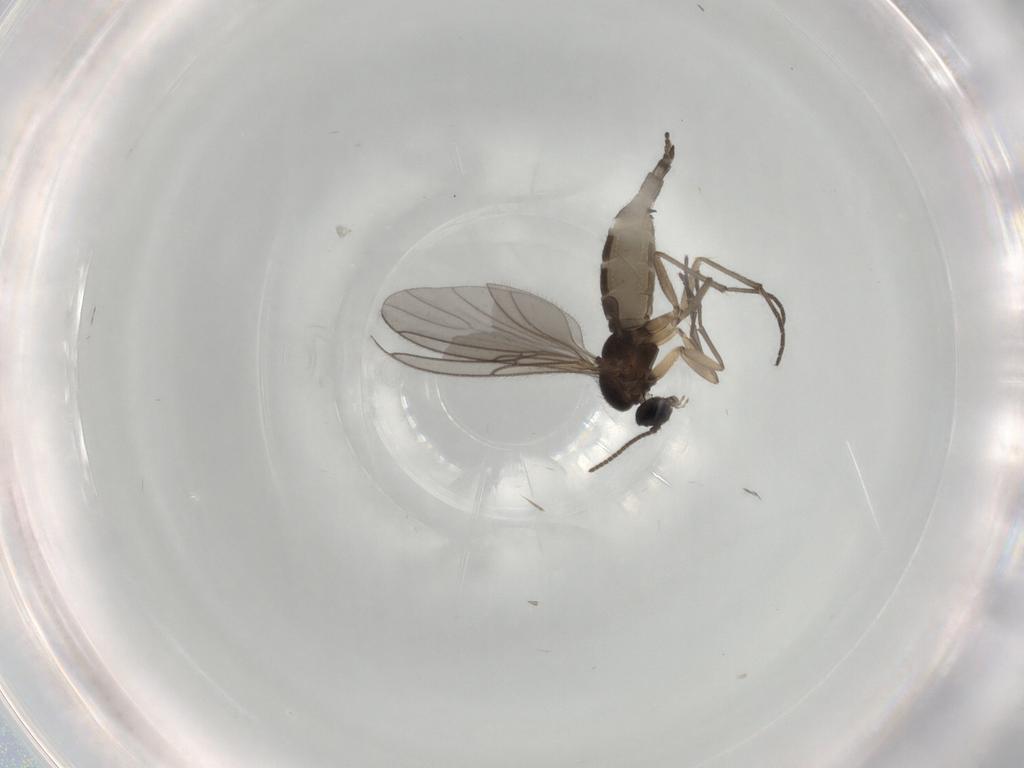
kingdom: Animalia
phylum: Arthropoda
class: Insecta
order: Diptera
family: Sciaridae
